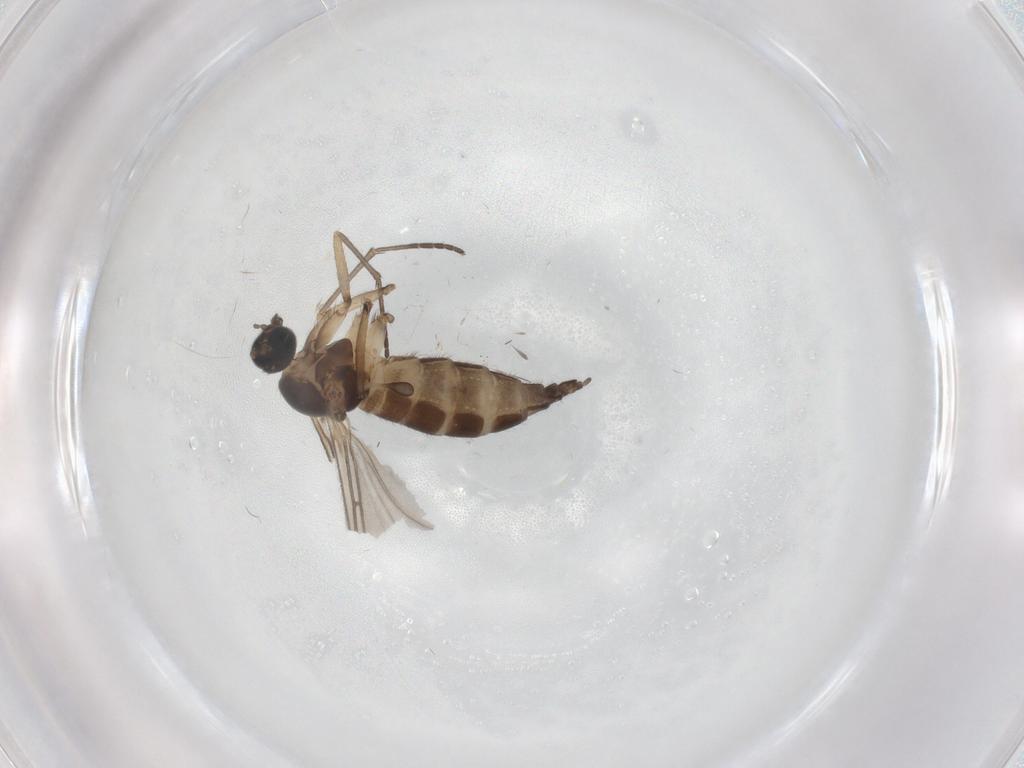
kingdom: Animalia
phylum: Arthropoda
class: Insecta
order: Diptera
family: Sciaridae
